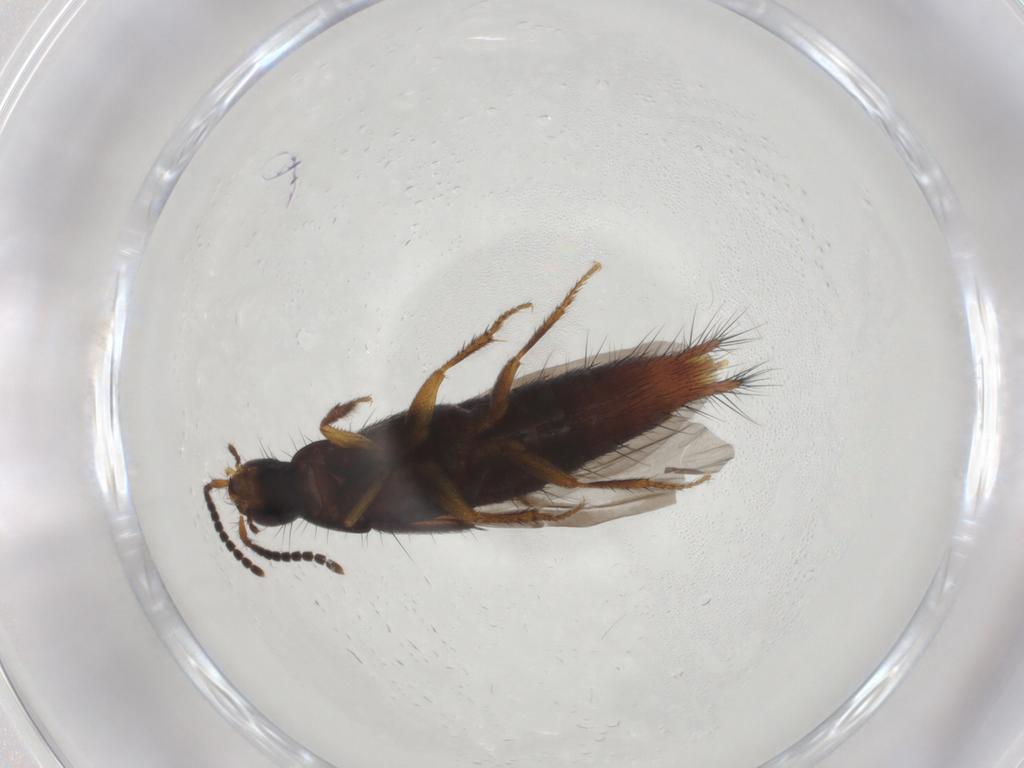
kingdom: Animalia
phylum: Arthropoda
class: Insecta
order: Coleoptera
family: Staphylinidae
